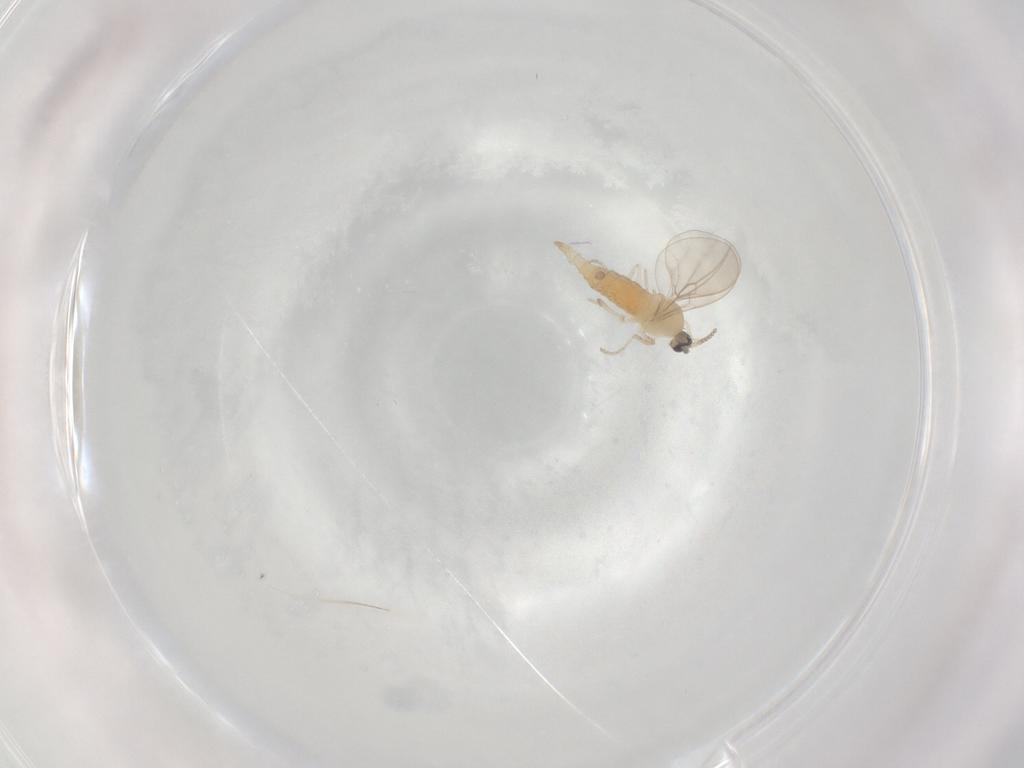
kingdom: Animalia
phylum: Arthropoda
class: Insecta
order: Diptera
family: Cecidomyiidae
